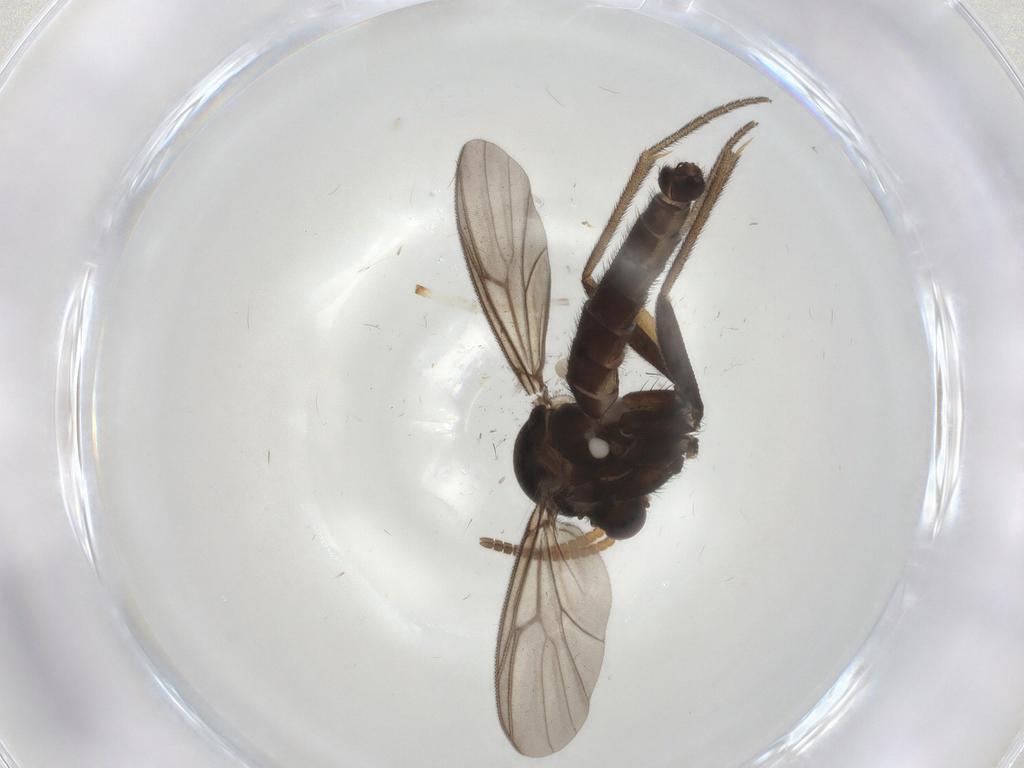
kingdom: Animalia
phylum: Arthropoda
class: Insecta
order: Diptera
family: Mycetophilidae
